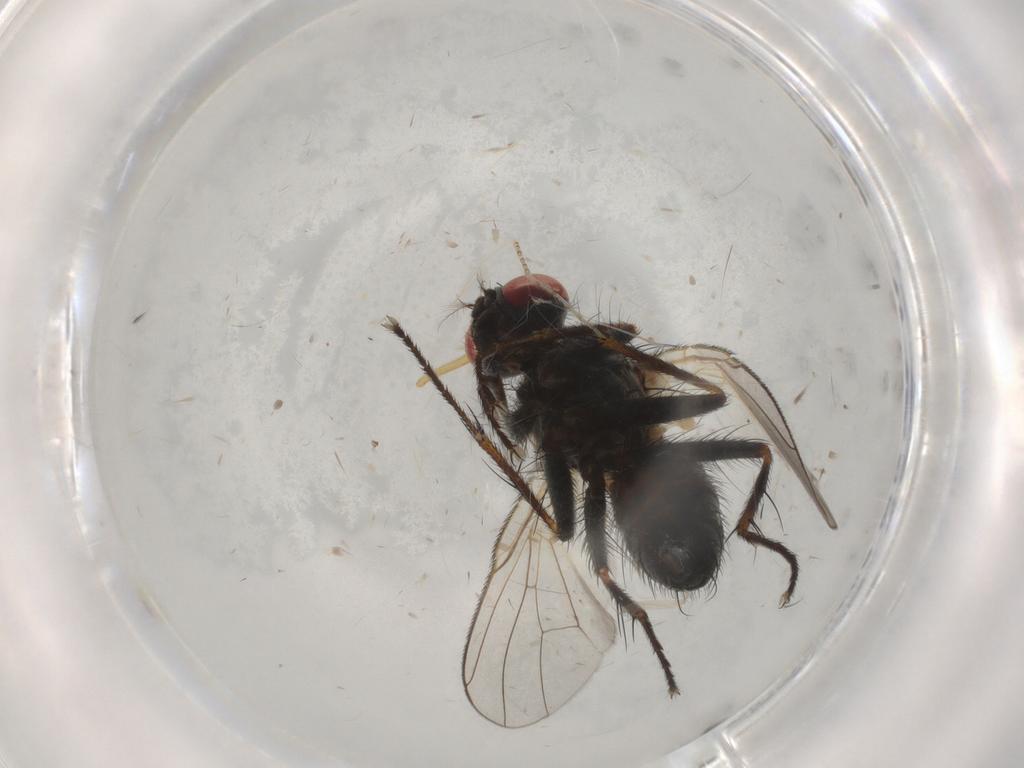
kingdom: Animalia
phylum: Arthropoda
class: Insecta
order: Diptera
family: Muscidae
